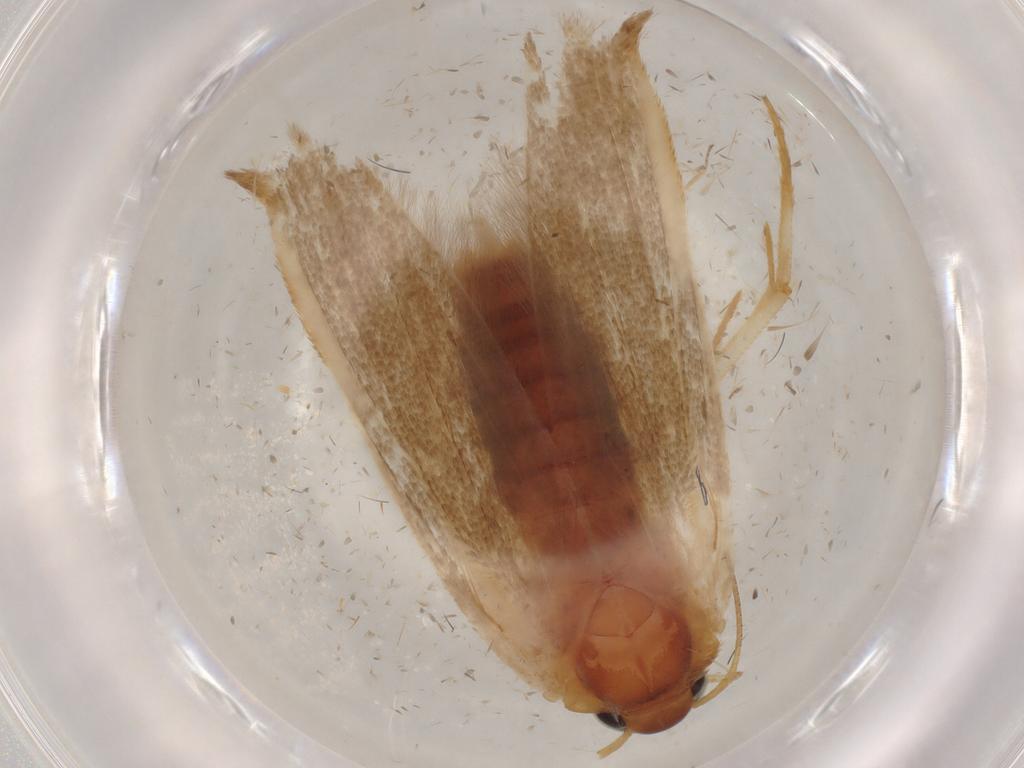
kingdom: Animalia
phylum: Arthropoda
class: Insecta
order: Lepidoptera
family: Blastobasidae
